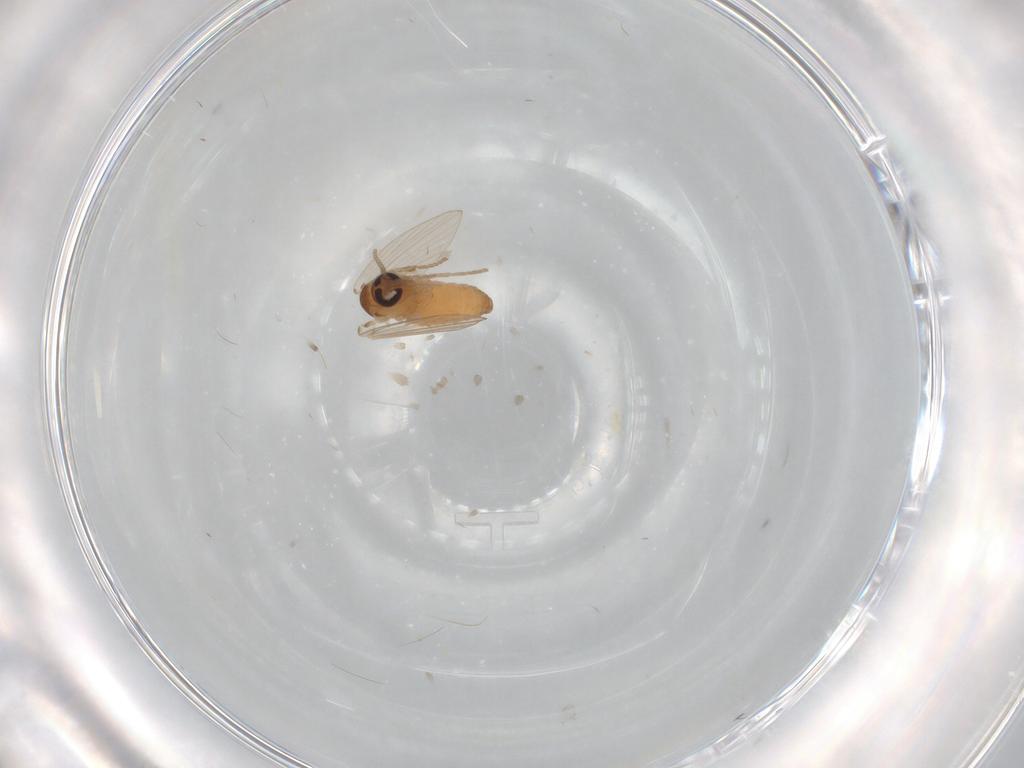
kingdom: Animalia
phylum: Arthropoda
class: Insecta
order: Diptera
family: Psychodidae
